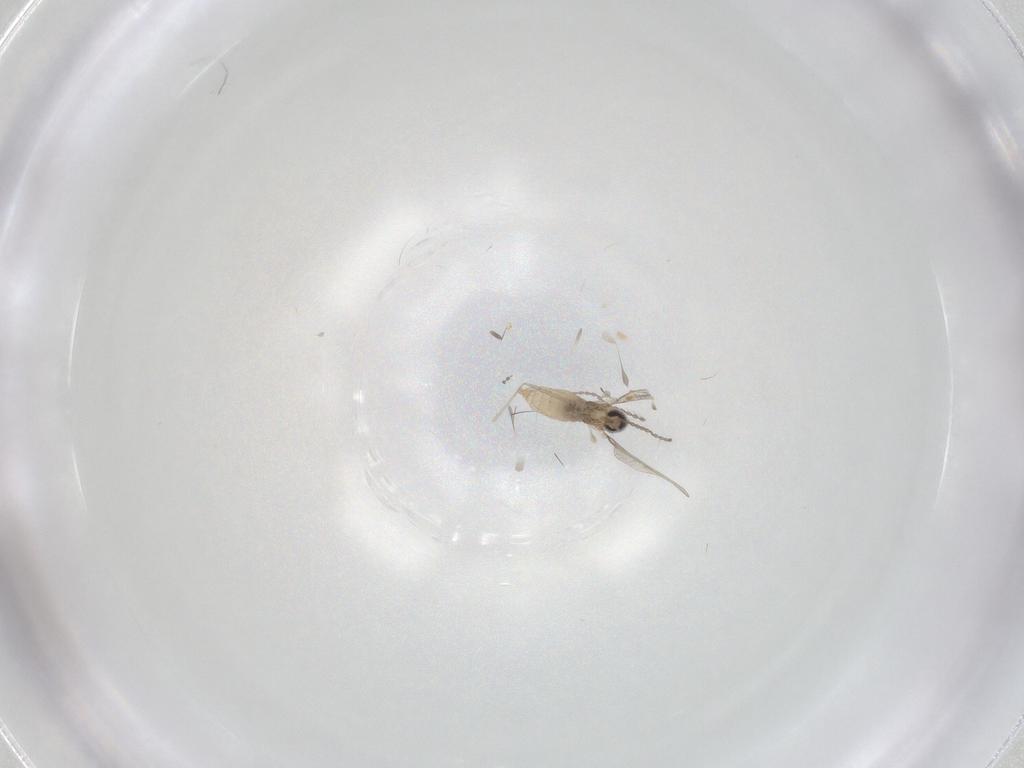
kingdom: Animalia
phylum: Arthropoda
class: Insecta
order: Diptera
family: Cecidomyiidae
